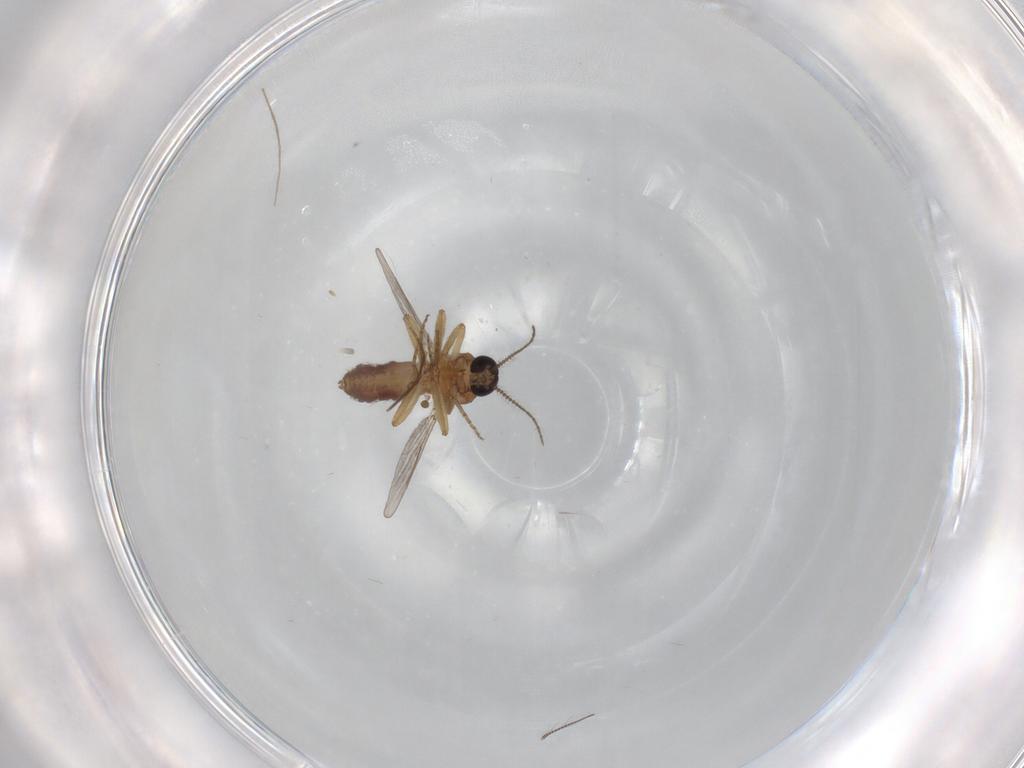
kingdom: Animalia
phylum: Arthropoda
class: Insecta
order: Diptera
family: Ceratopogonidae
